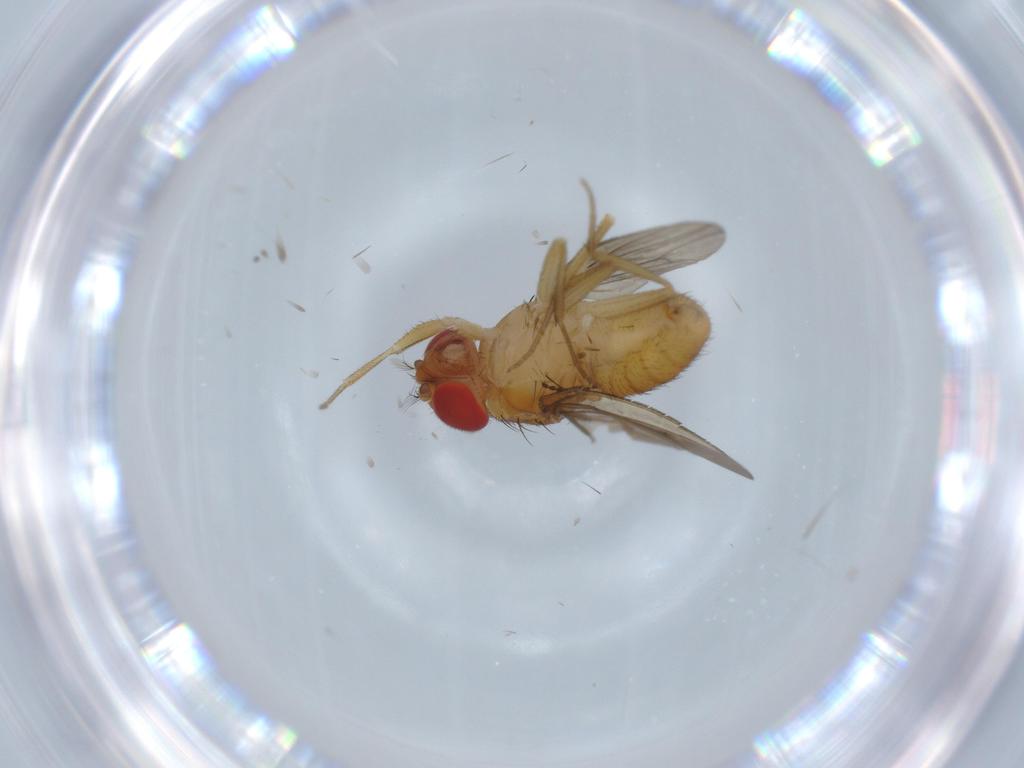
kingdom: Animalia
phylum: Arthropoda
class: Insecta
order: Diptera
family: Drosophilidae
